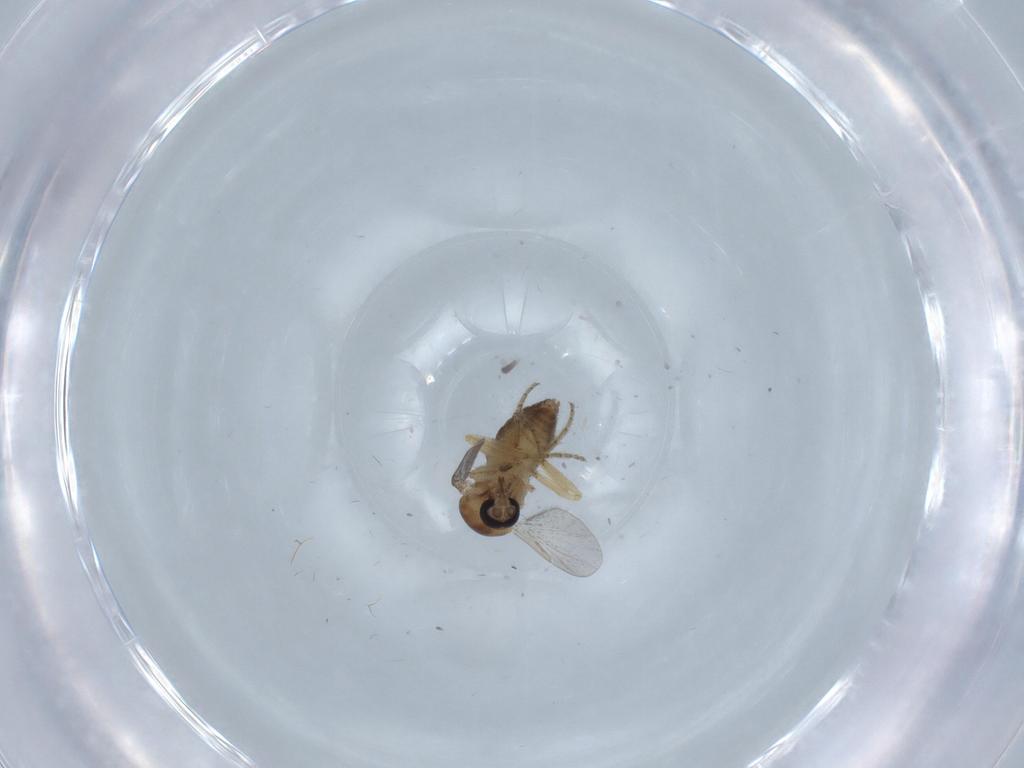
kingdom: Animalia
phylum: Arthropoda
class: Insecta
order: Diptera
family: Ceratopogonidae
